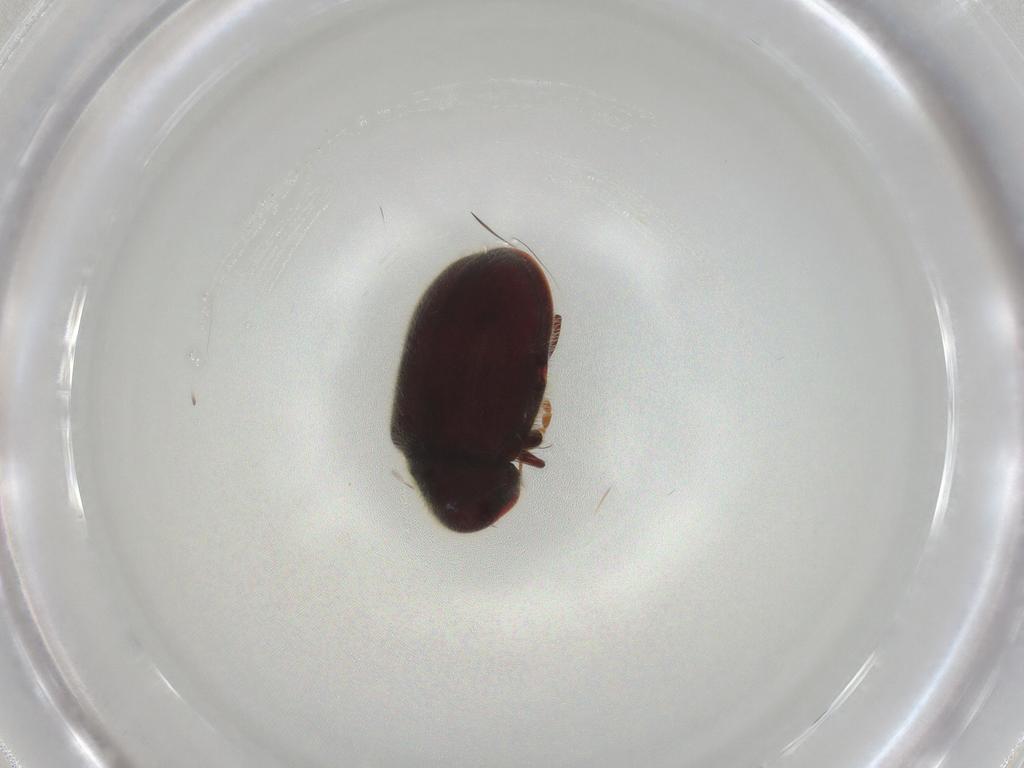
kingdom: Animalia
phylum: Arthropoda
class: Insecta
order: Coleoptera
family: Ptinidae
